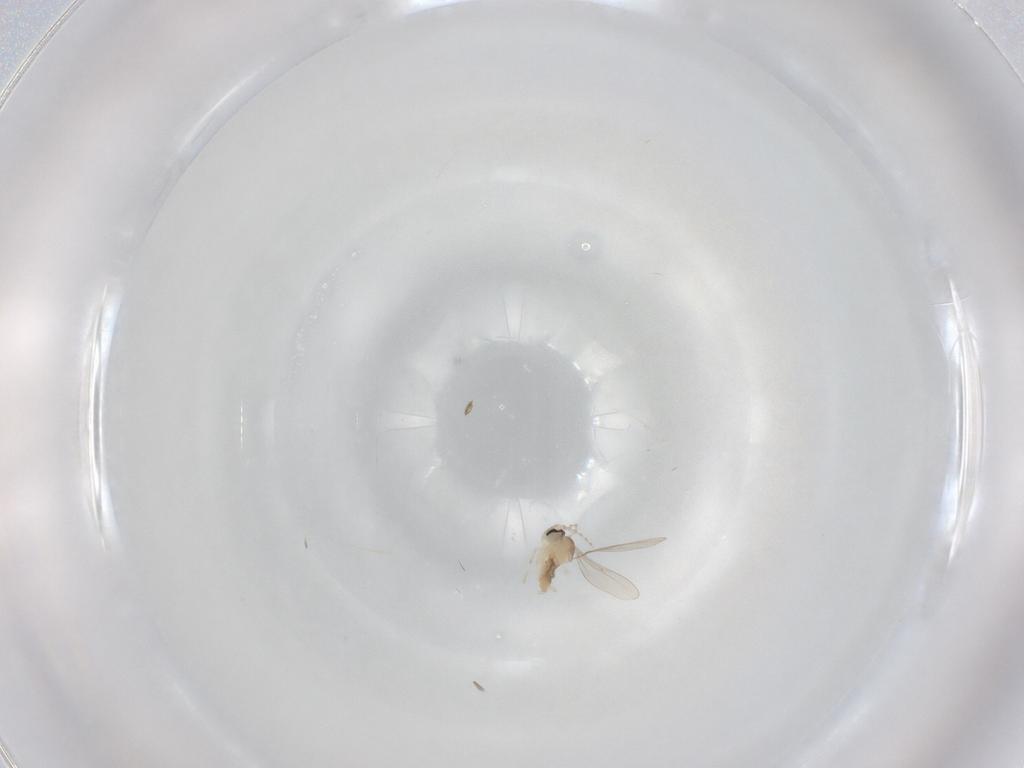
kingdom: Animalia
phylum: Arthropoda
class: Insecta
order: Diptera
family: Cecidomyiidae
